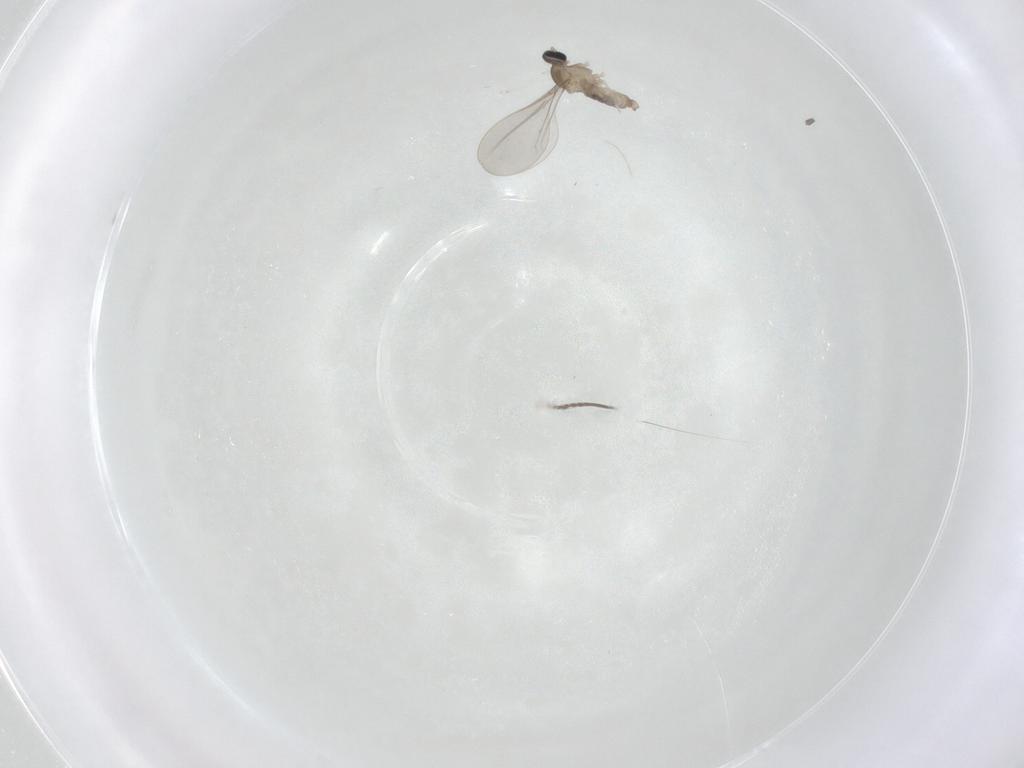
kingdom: Animalia
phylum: Arthropoda
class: Insecta
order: Diptera
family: Cecidomyiidae
